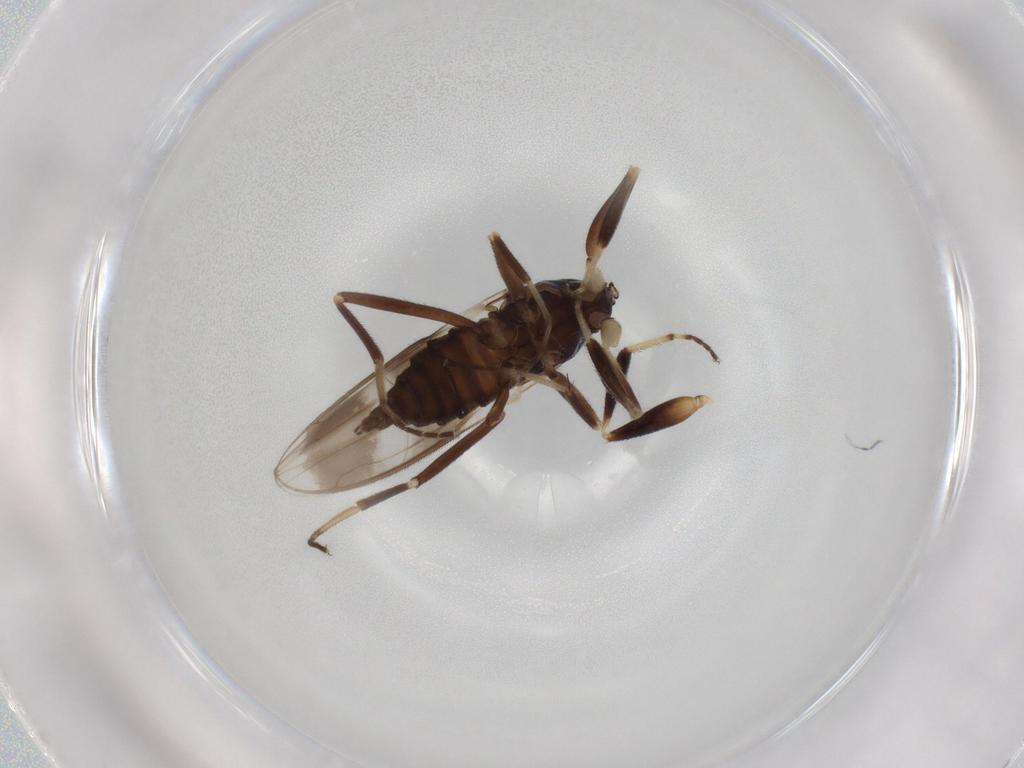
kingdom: Animalia
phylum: Arthropoda
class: Insecta
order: Diptera
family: Hybotidae
